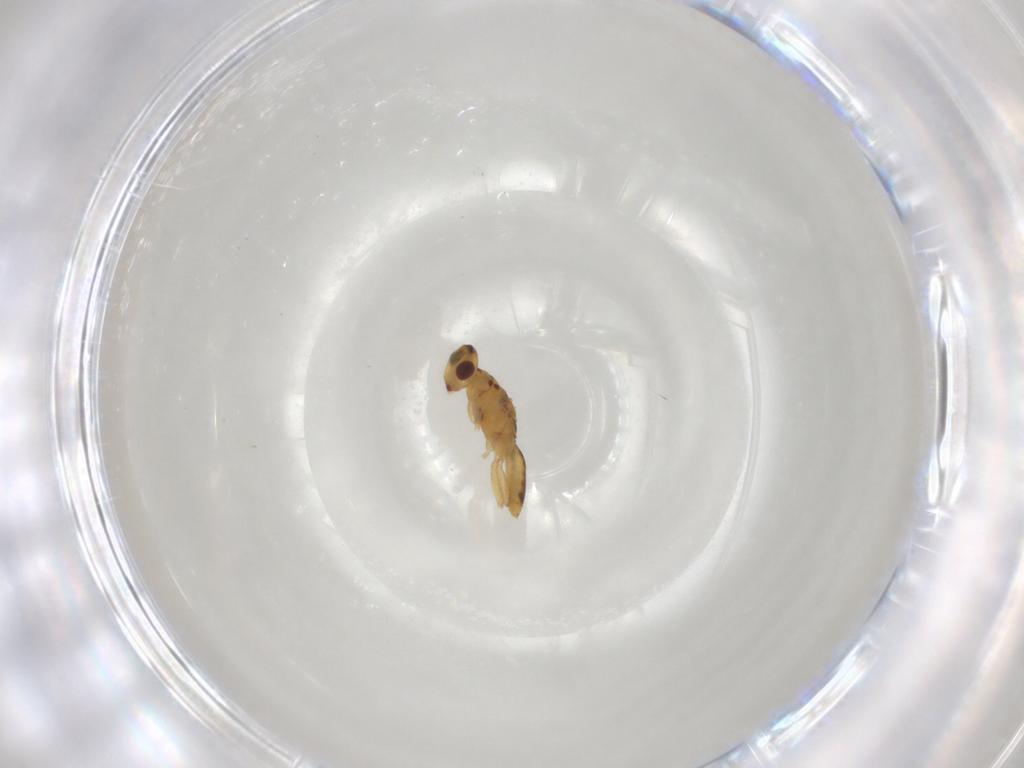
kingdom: Animalia
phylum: Arthropoda
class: Insecta
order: Hymenoptera
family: Eulophidae
